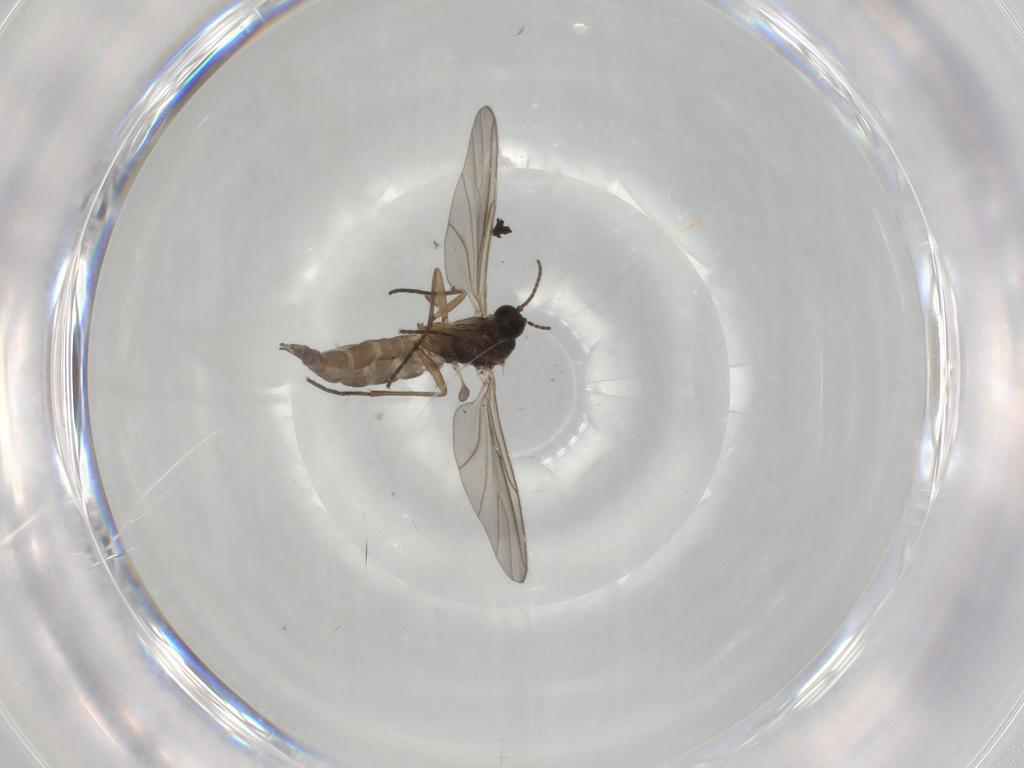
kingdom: Animalia
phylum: Arthropoda
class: Insecta
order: Diptera
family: Sciaridae
